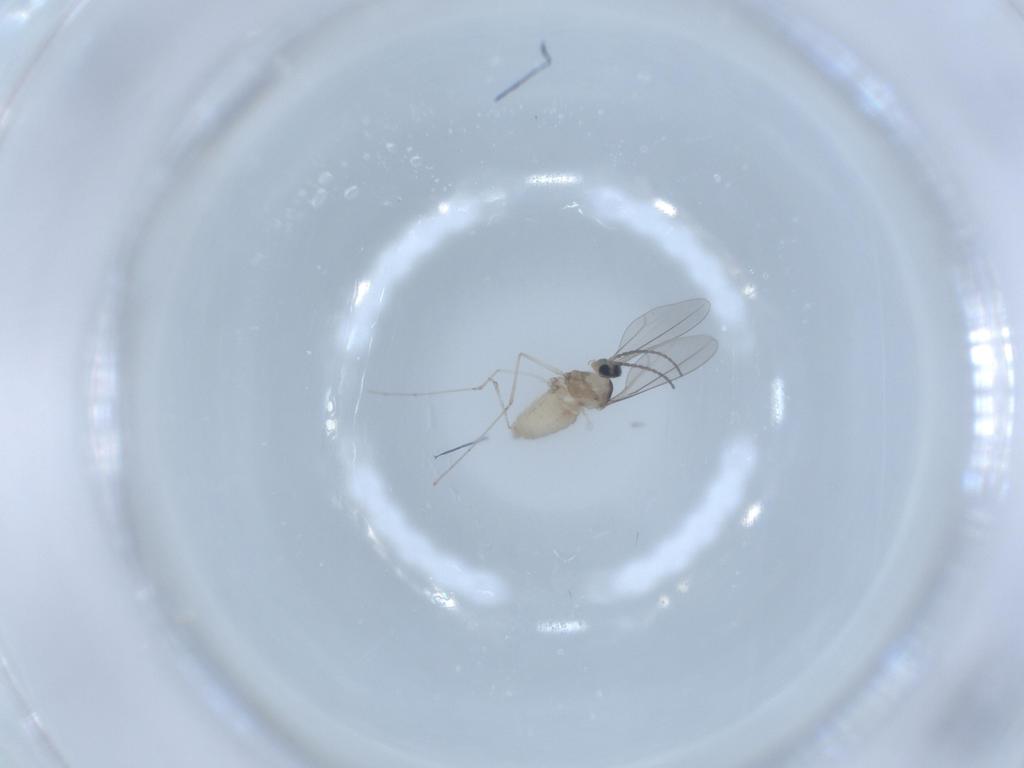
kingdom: Animalia
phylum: Arthropoda
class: Insecta
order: Diptera
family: Cecidomyiidae
